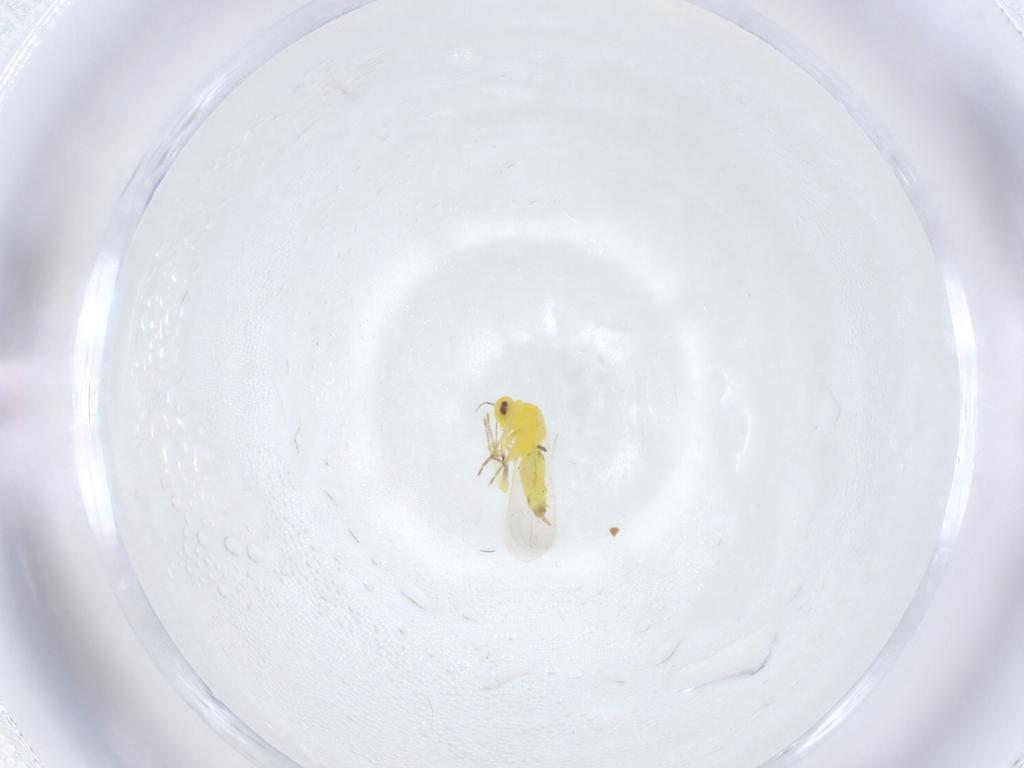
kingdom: Animalia
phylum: Arthropoda
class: Insecta
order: Hemiptera
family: Aleyrodidae
